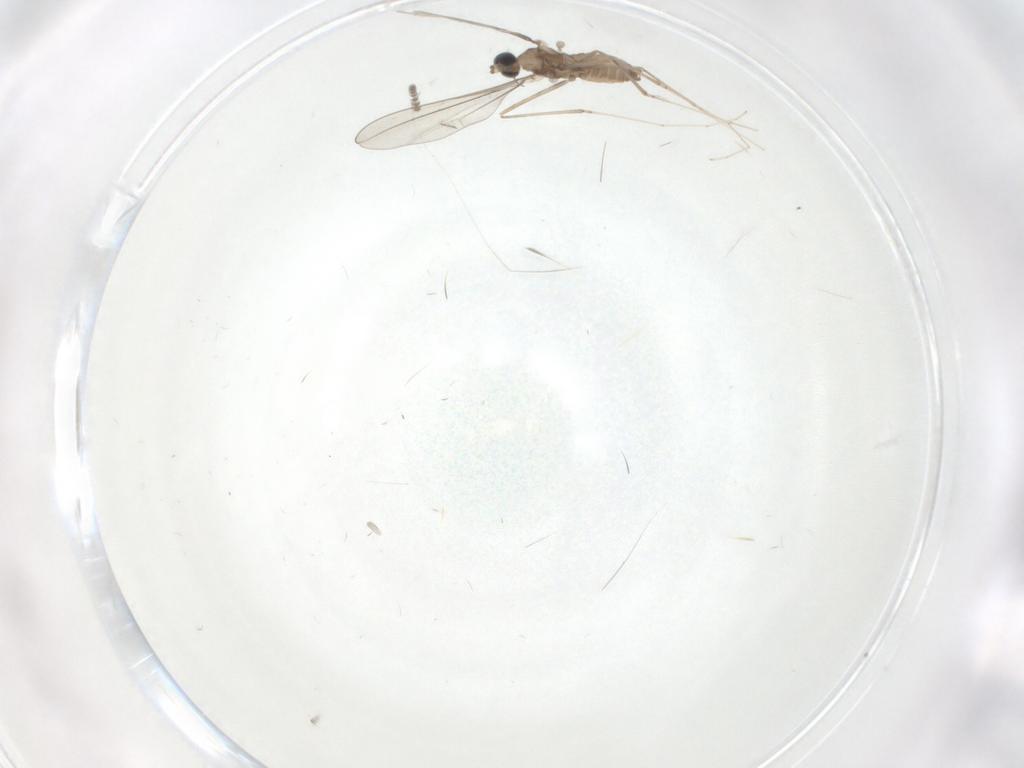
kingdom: Animalia
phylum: Arthropoda
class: Insecta
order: Diptera
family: Cecidomyiidae
